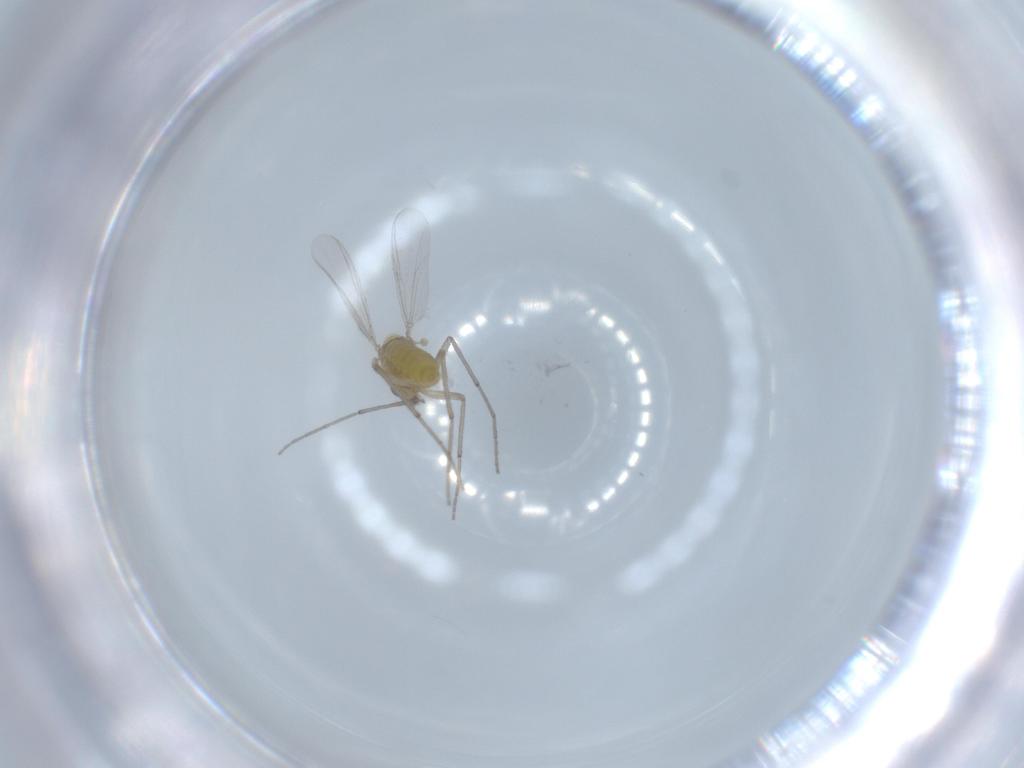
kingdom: Animalia
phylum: Arthropoda
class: Insecta
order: Diptera
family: Chironomidae
